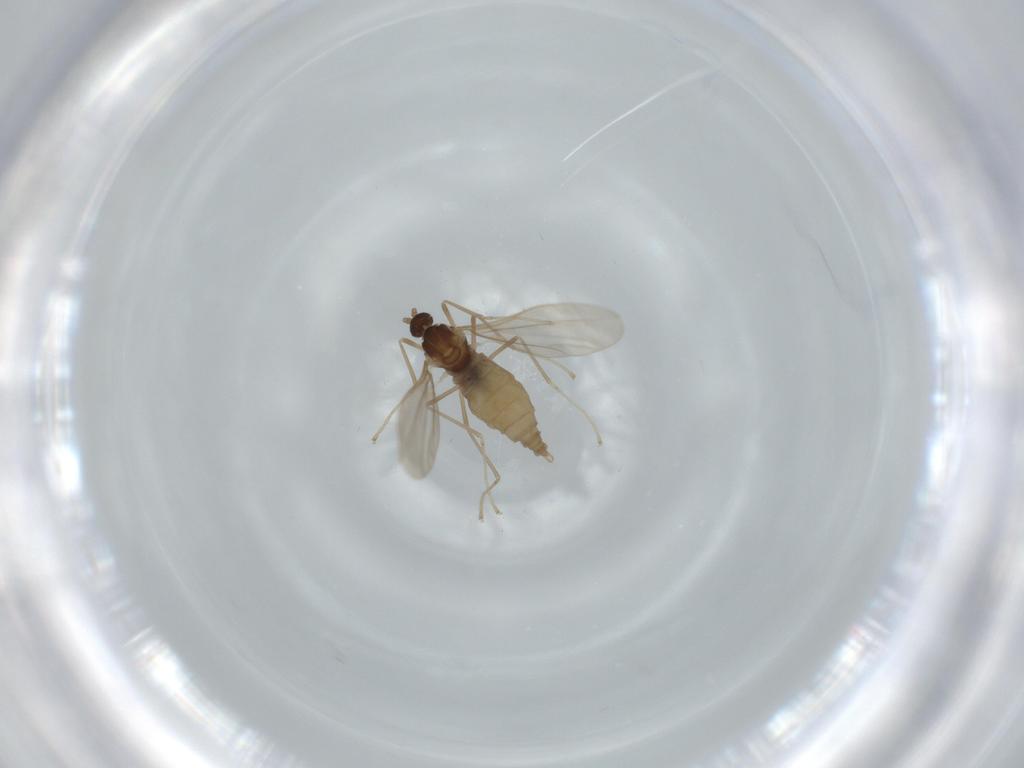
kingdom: Animalia
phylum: Arthropoda
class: Insecta
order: Diptera
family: Cecidomyiidae
